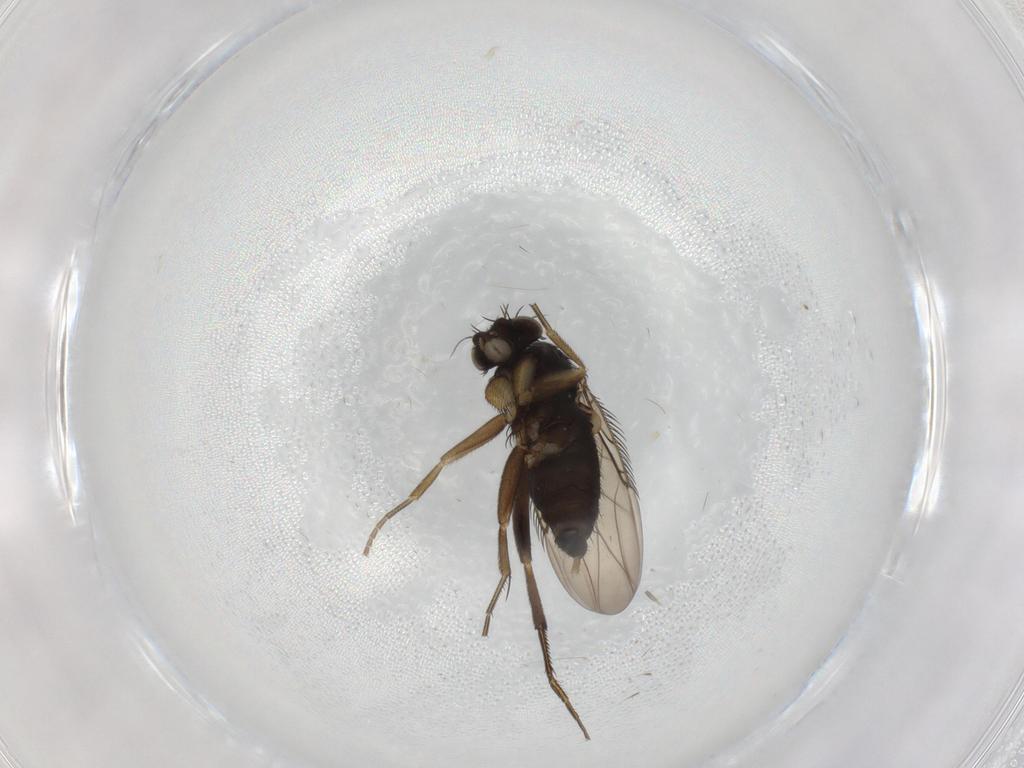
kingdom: Animalia
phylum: Arthropoda
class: Insecta
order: Diptera
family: Phoridae
